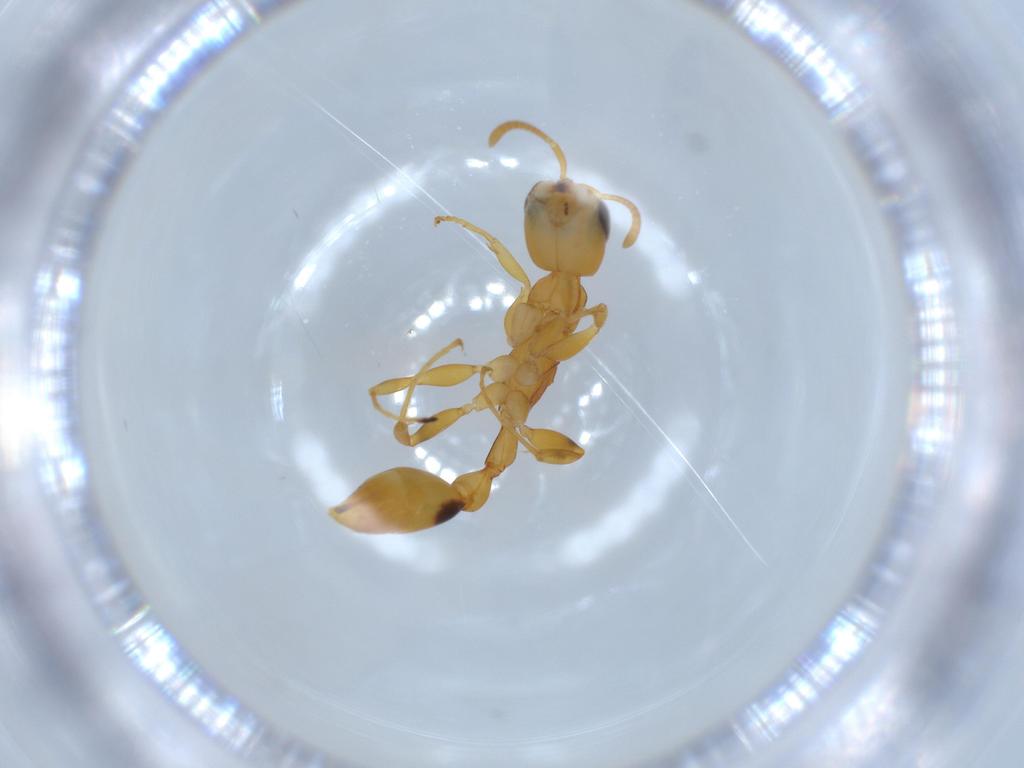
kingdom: Animalia
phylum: Arthropoda
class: Insecta
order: Hymenoptera
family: Formicidae
